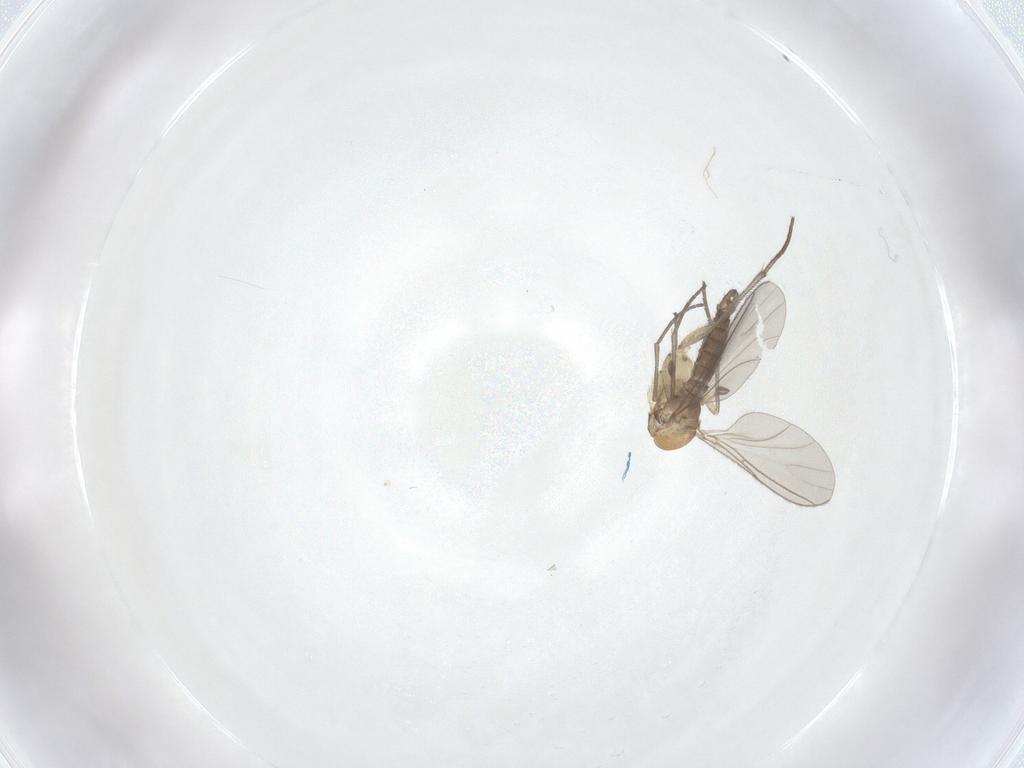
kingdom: Animalia
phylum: Arthropoda
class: Insecta
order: Diptera
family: Sciaridae
